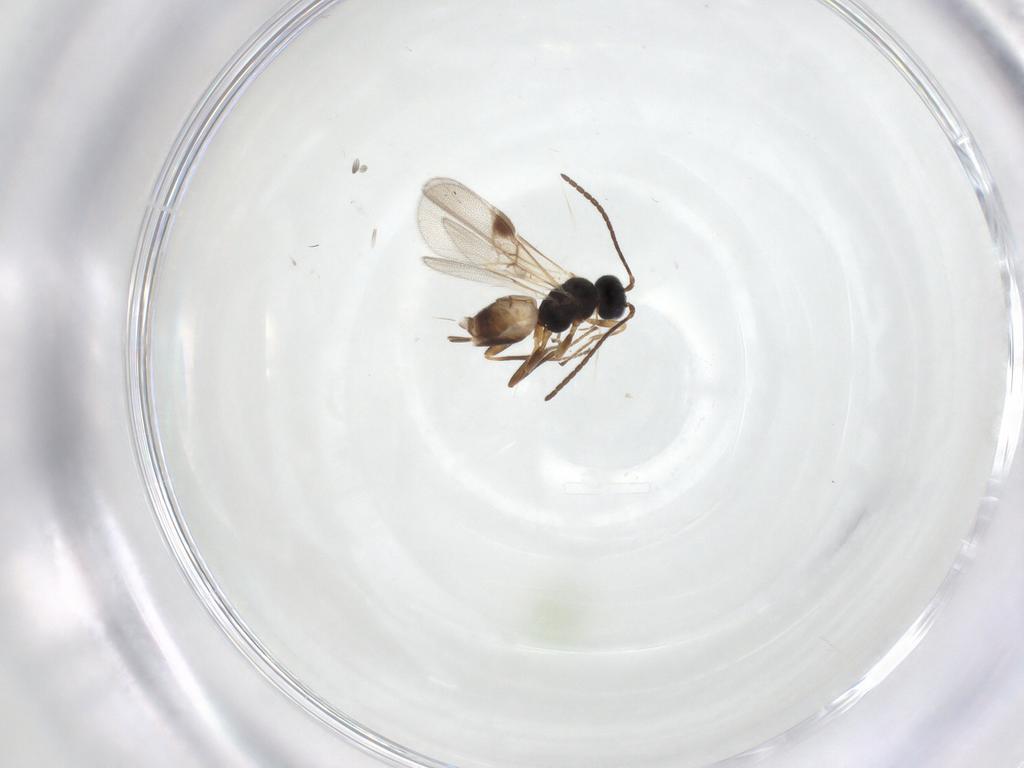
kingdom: Animalia
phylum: Arthropoda
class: Insecta
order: Hymenoptera
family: Braconidae
